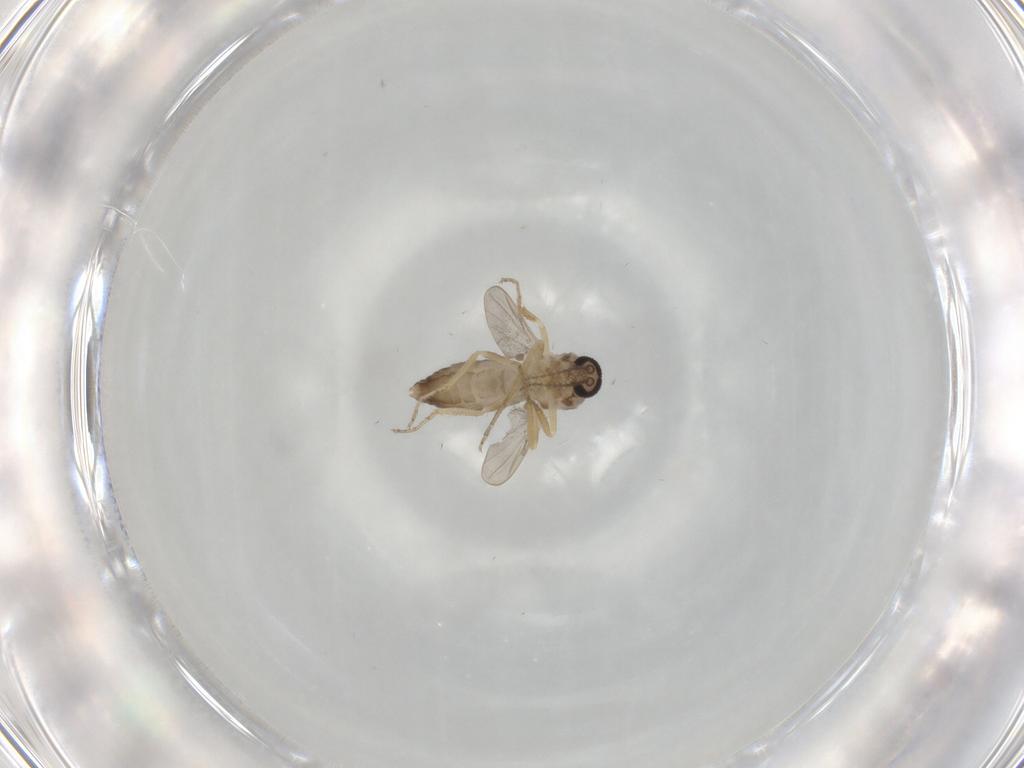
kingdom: Animalia
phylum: Arthropoda
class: Insecta
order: Diptera
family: Ceratopogonidae
